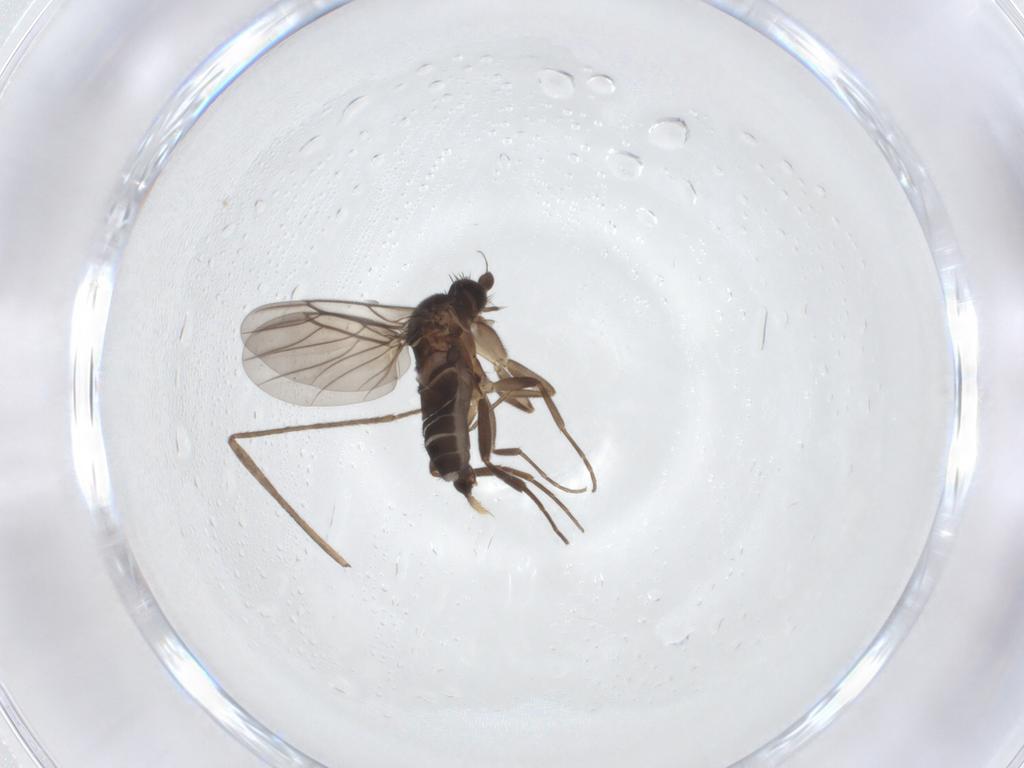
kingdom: Animalia
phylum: Arthropoda
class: Insecta
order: Diptera
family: Limoniidae
